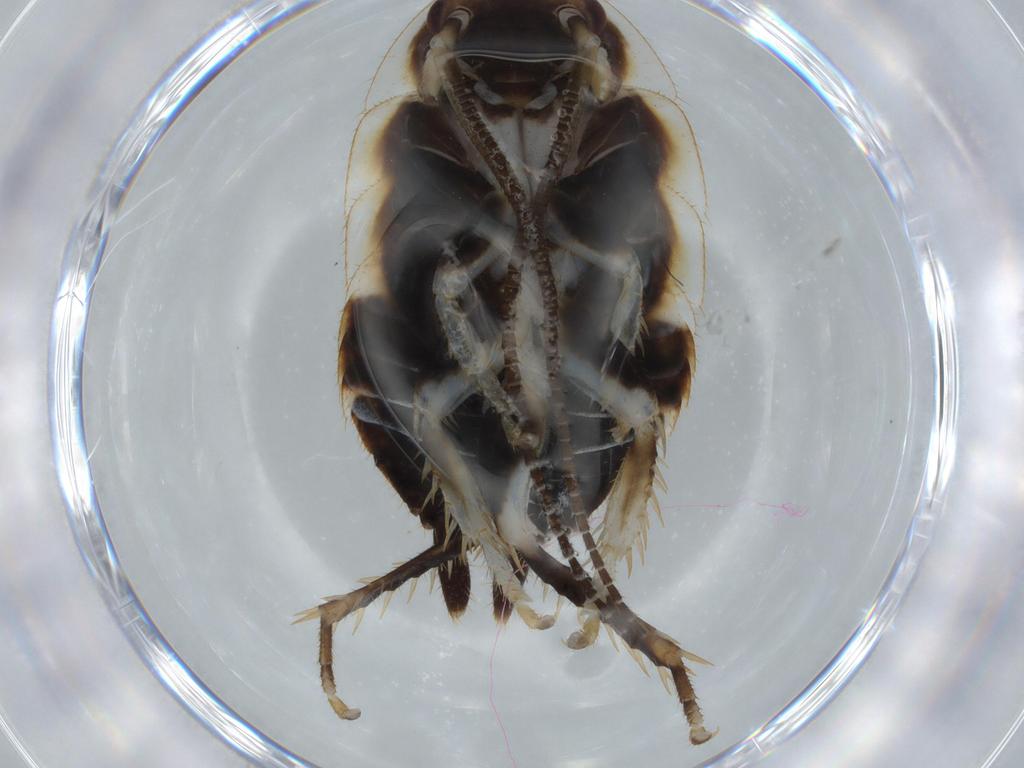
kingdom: Animalia
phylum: Arthropoda
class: Insecta
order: Blattodea
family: Ectobiidae
